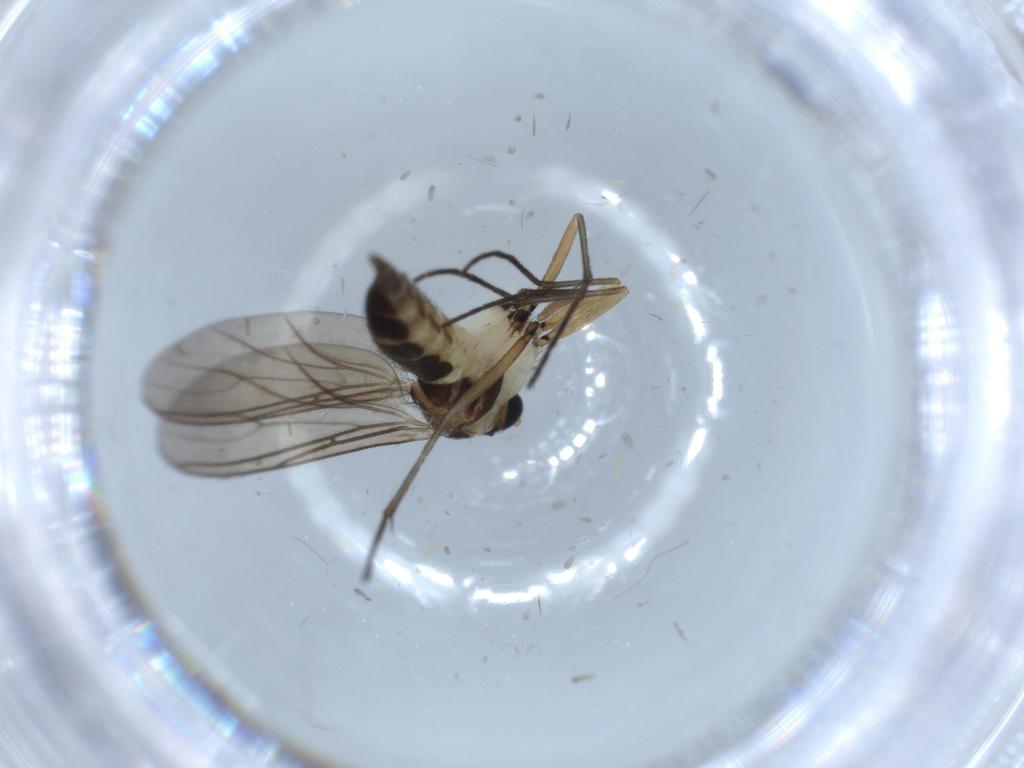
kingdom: Animalia
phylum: Arthropoda
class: Insecta
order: Diptera
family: Sciaridae
